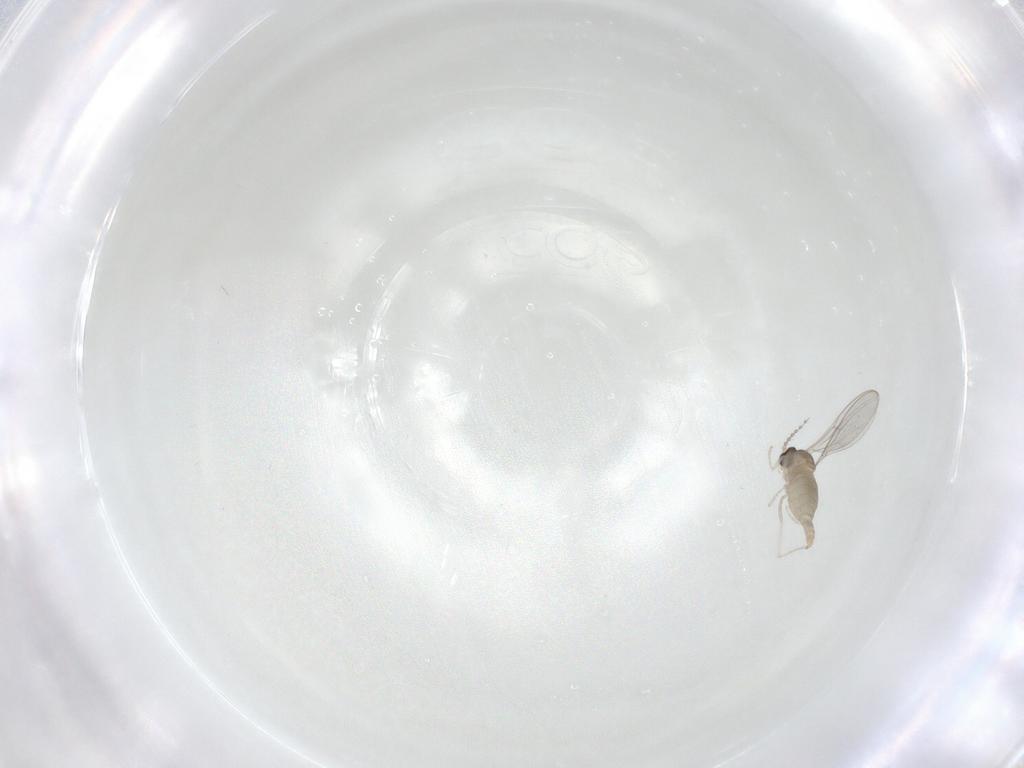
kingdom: Animalia
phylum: Arthropoda
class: Insecta
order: Diptera
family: Cecidomyiidae
